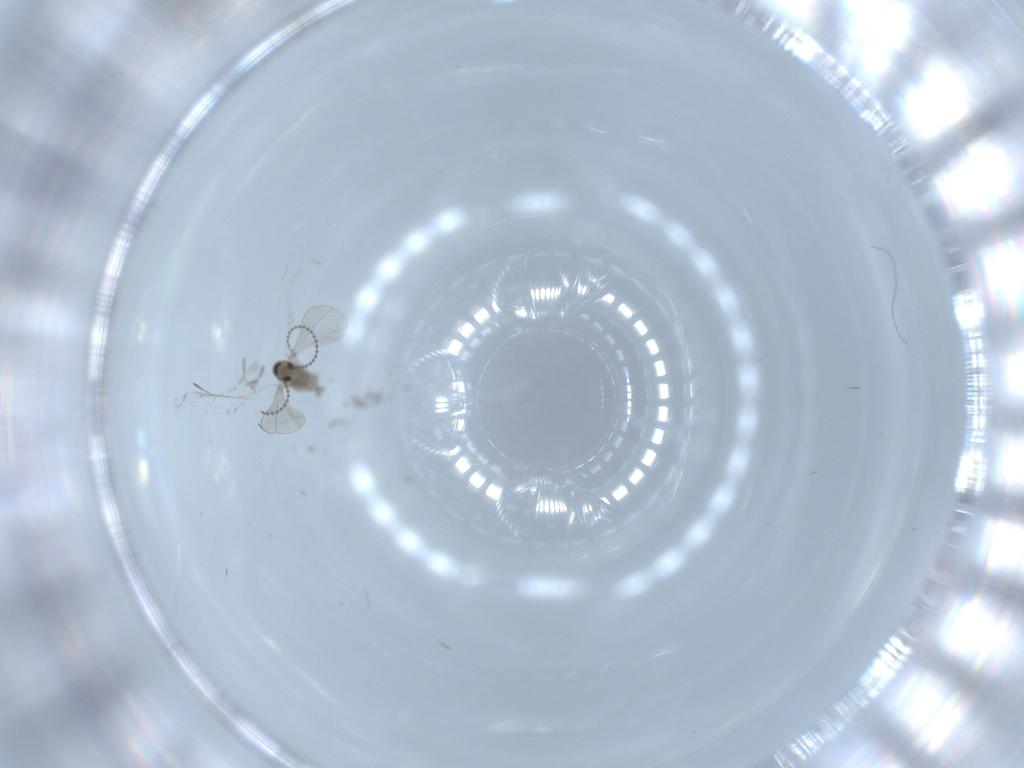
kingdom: Animalia
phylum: Arthropoda
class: Insecta
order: Diptera
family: Cecidomyiidae
